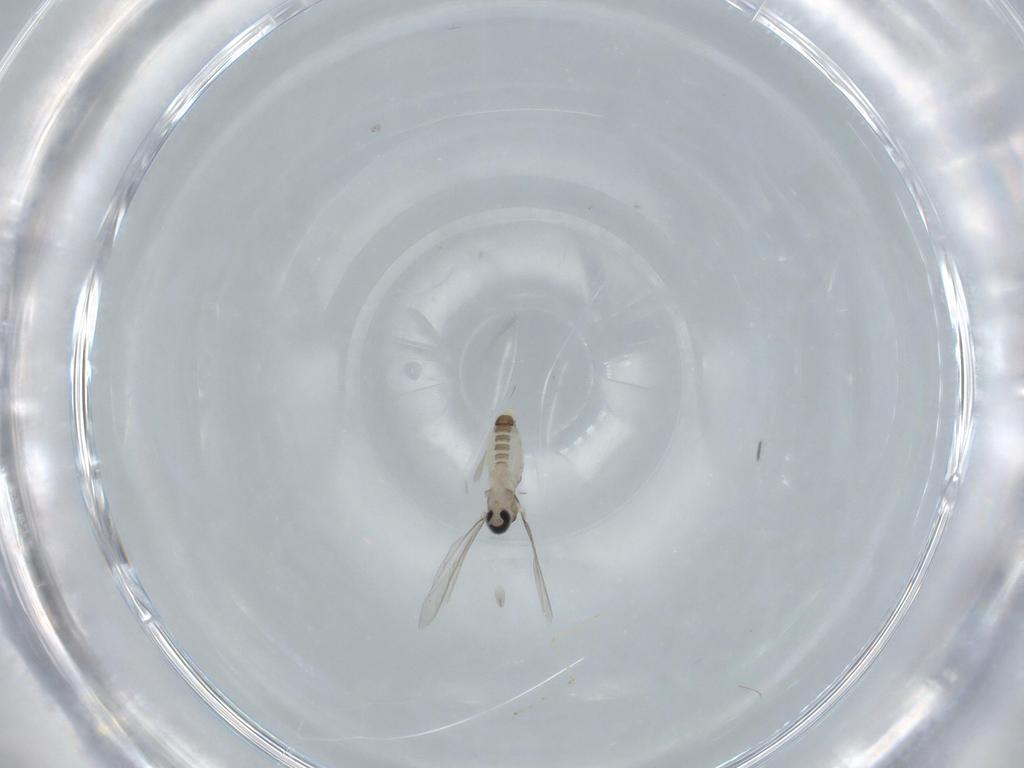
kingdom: Animalia
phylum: Arthropoda
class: Insecta
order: Diptera
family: Cecidomyiidae
